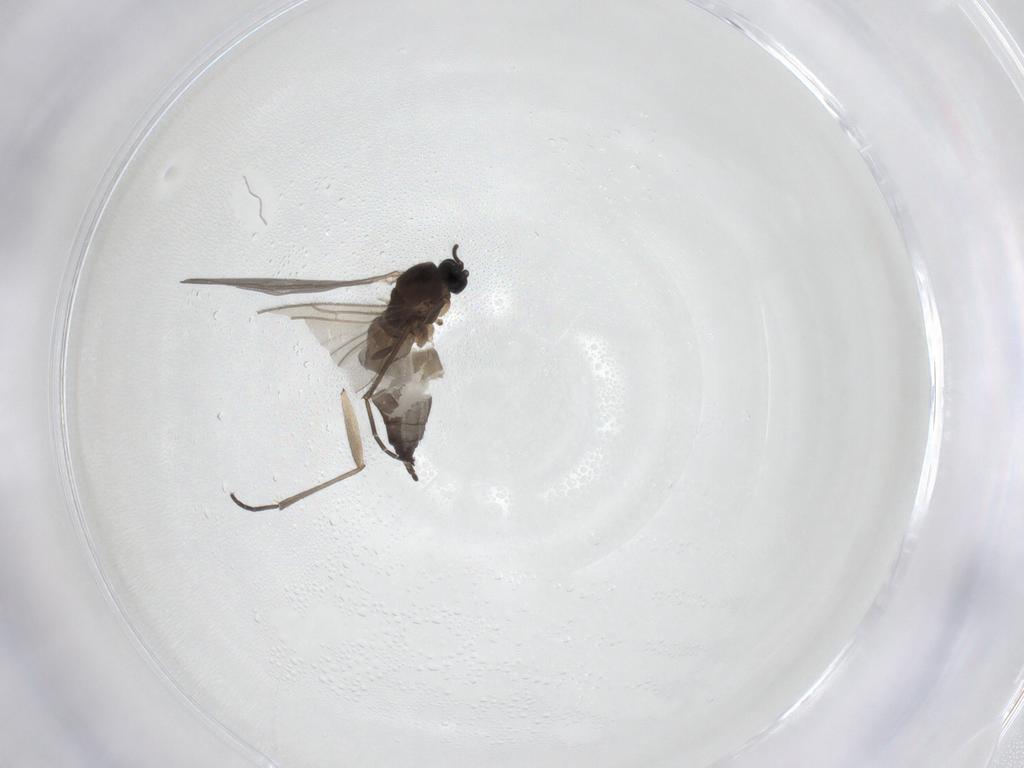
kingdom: Animalia
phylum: Arthropoda
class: Insecta
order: Diptera
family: Sciaridae
